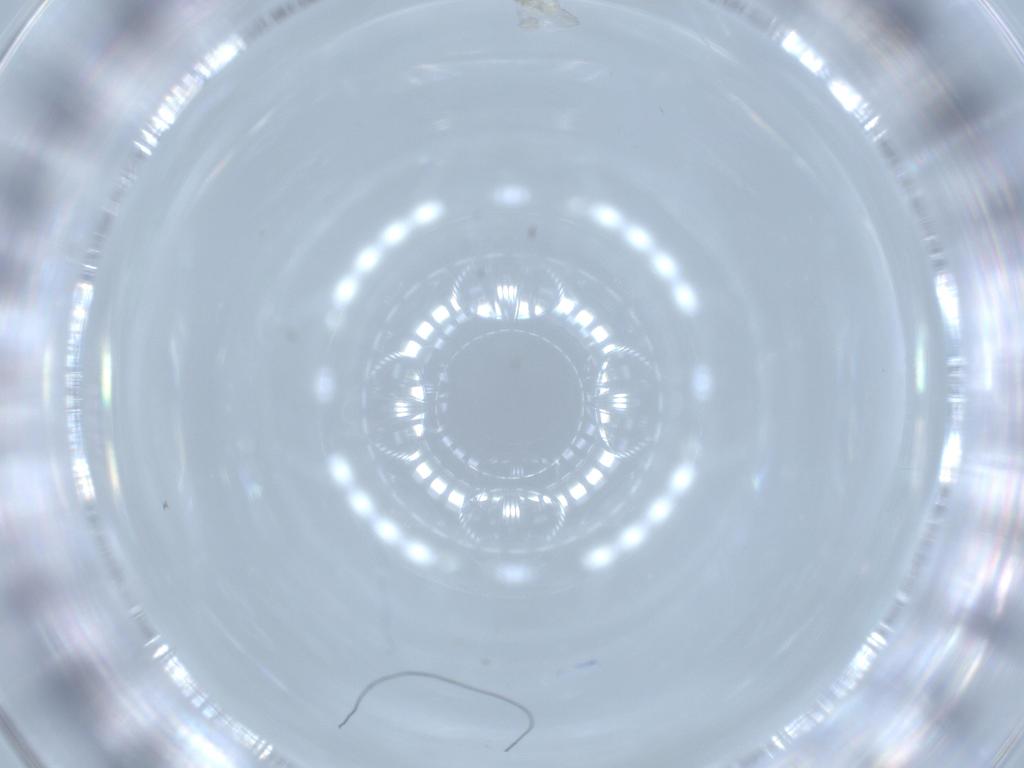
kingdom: Animalia
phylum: Arthropoda
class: Insecta
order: Hemiptera
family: Aleyrodidae
